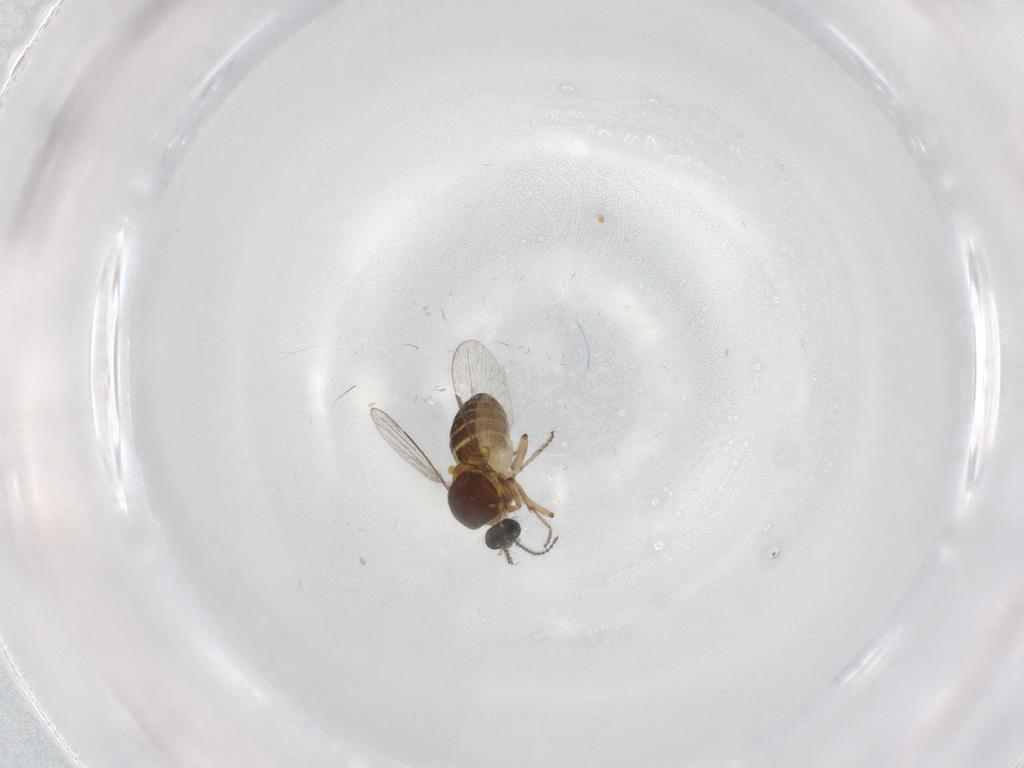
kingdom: Animalia
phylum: Arthropoda
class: Insecta
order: Diptera
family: Ceratopogonidae
